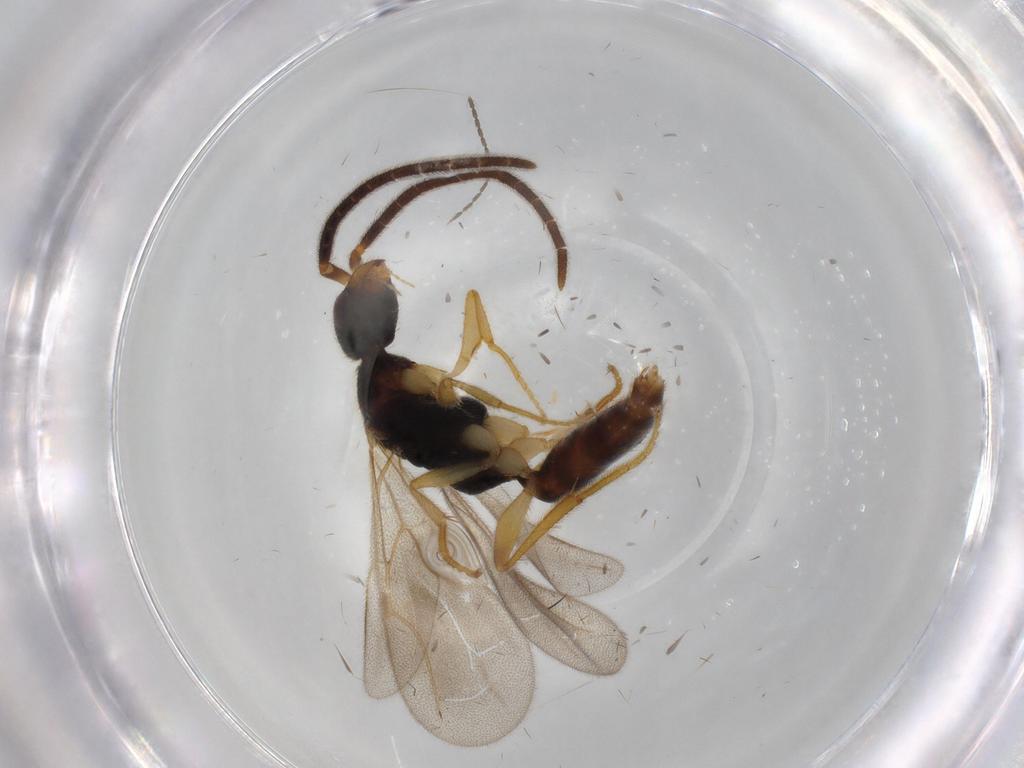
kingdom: Animalia
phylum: Arthropoda
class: Insecta
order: Hymenoptera
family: Bethylidae
